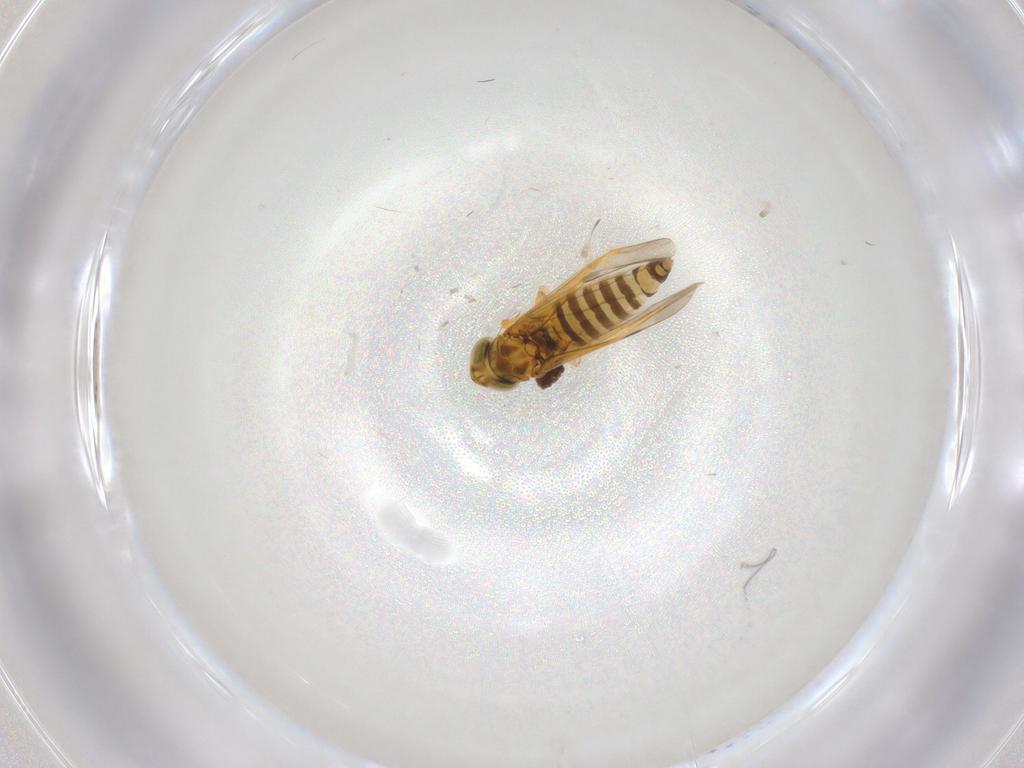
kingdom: Animalia
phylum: Arthropoda
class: Insecta
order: Hemiptera
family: Cicadellidae
